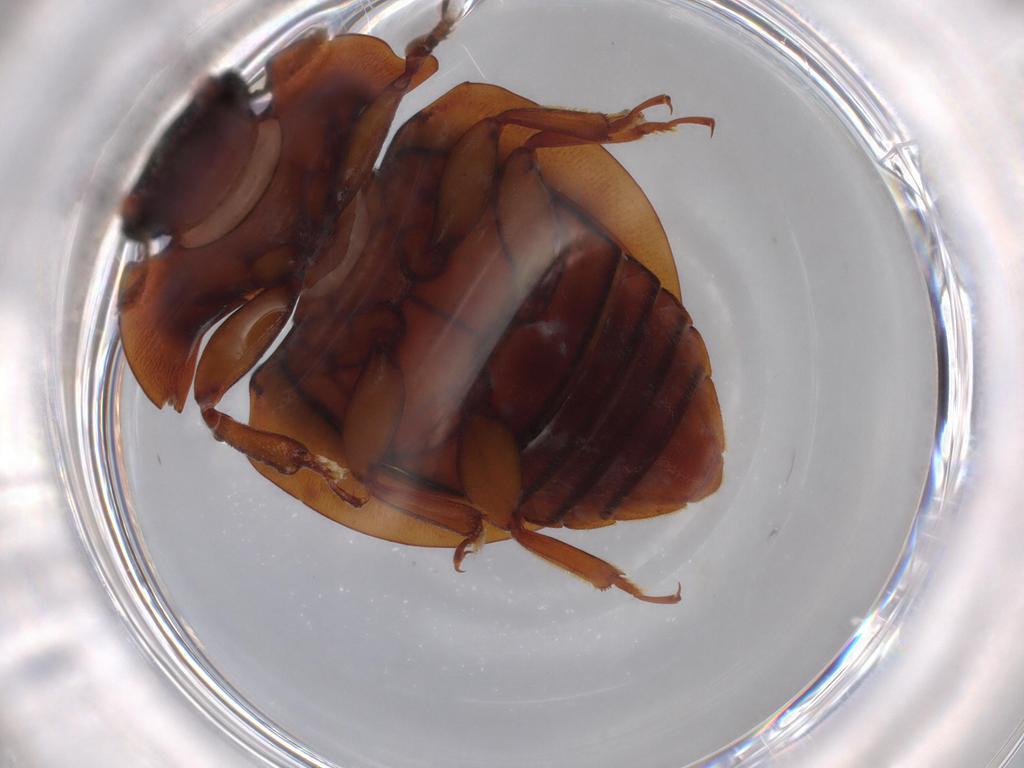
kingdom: Animalia
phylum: Arthropoda
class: Insecta
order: Coleoptera
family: Nitidulidae
